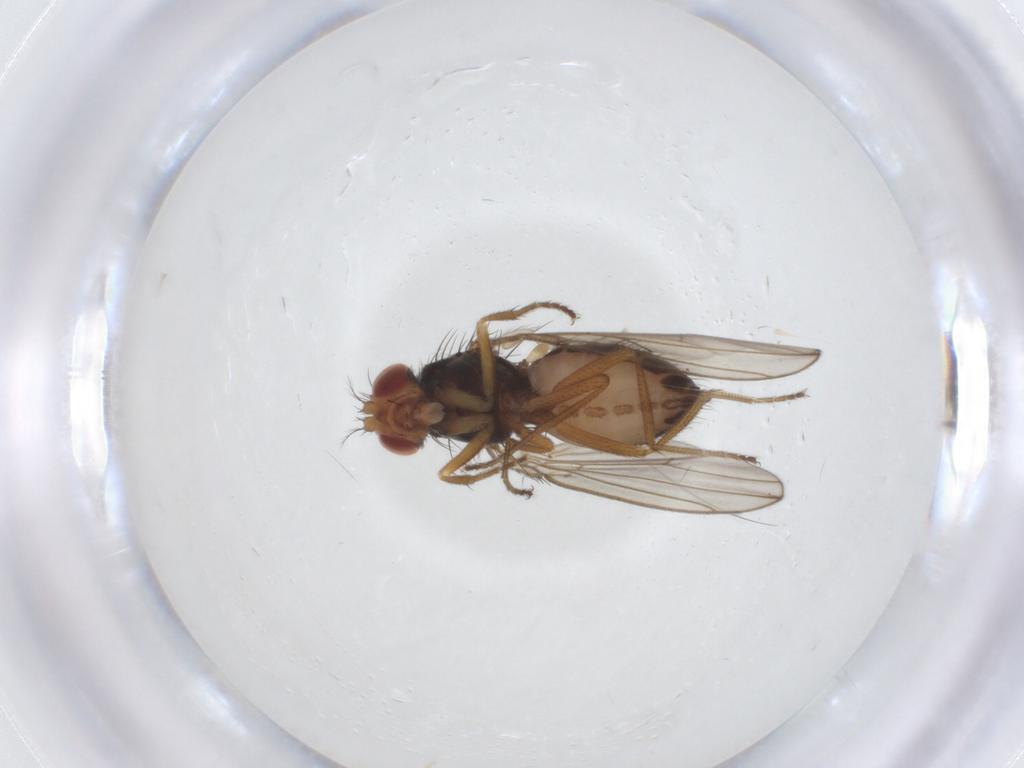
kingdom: Animalia
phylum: Arthropoda
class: Insecta
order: Diptera
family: Drosophilidae
